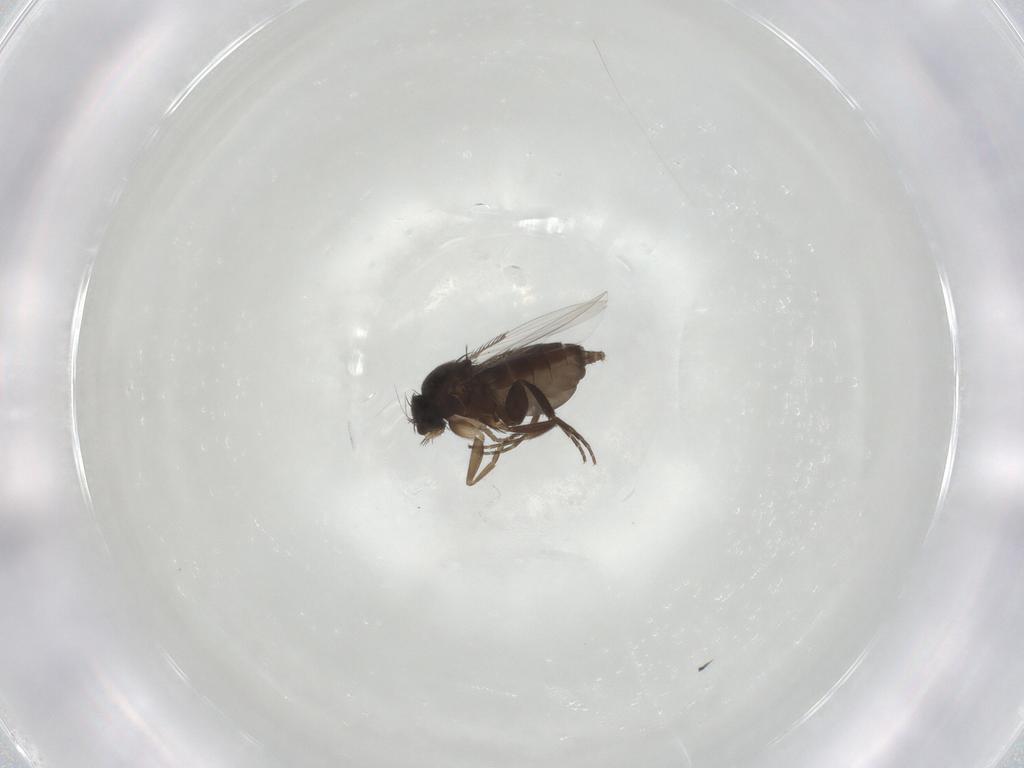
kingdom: Animalia
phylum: Arthropoda
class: Insecta
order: Diptera
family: Phoridae
